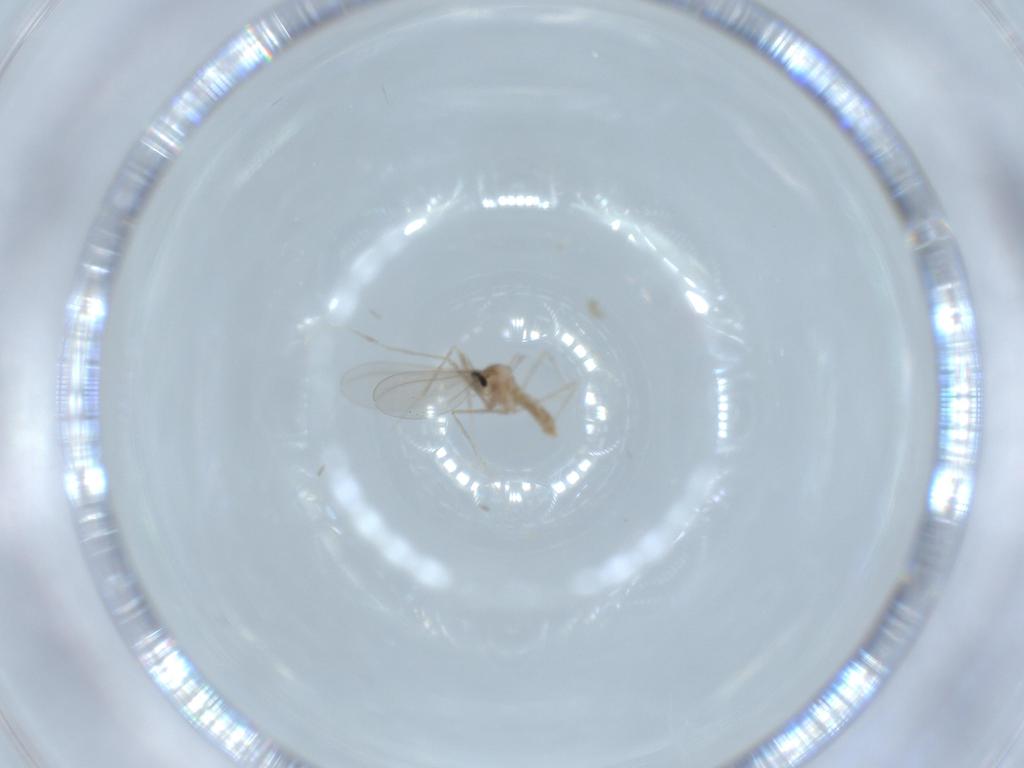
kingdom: Animalia
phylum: Arthropoda
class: Insecta
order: Diptera
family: Cecidomyiidae
